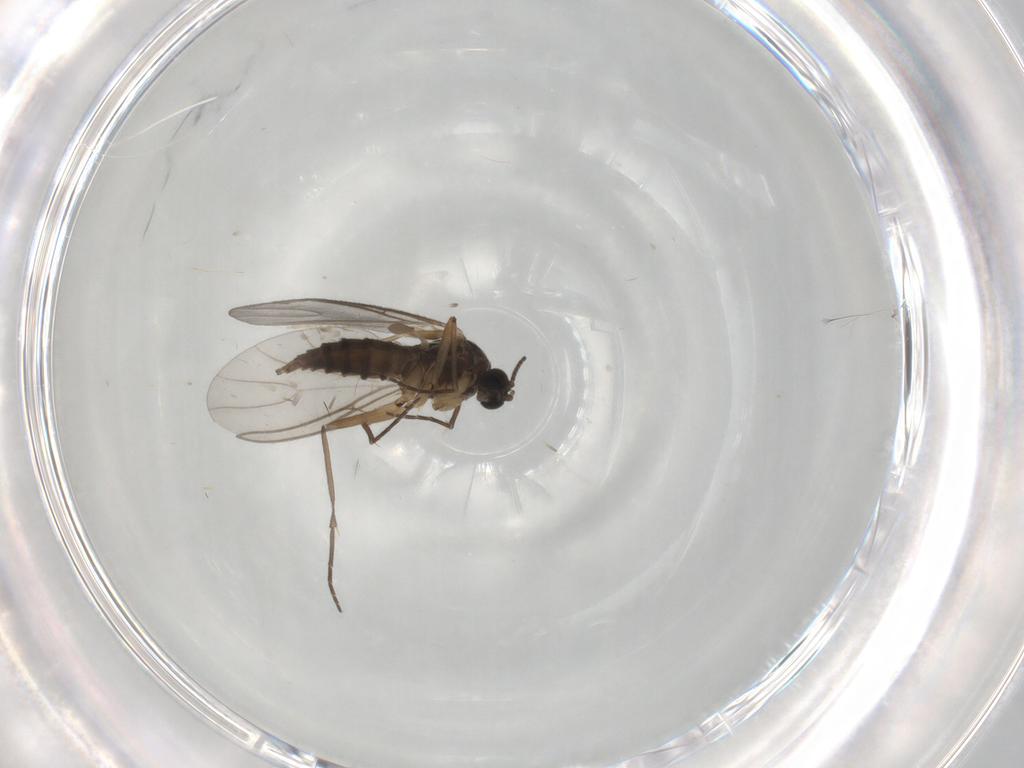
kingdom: Animalia
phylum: Arthropoda
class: Insecta
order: Diptera
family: Sciaridae
